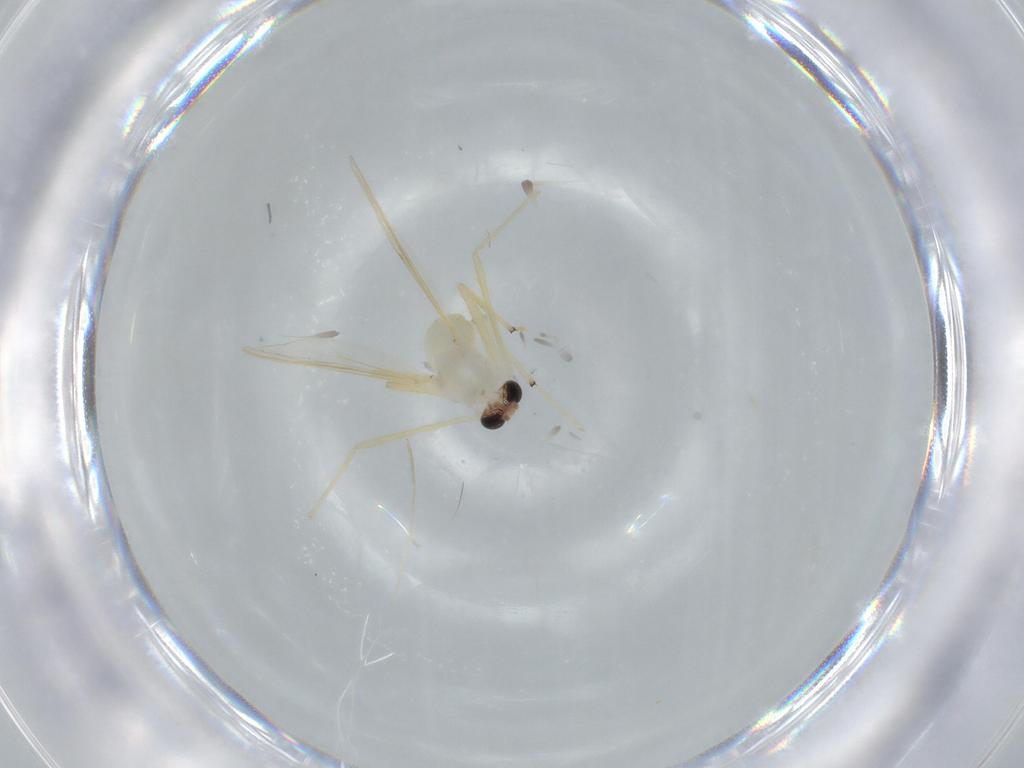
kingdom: Animalia
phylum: Arthropoda
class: Insecta
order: Diptera
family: Chironomidae
